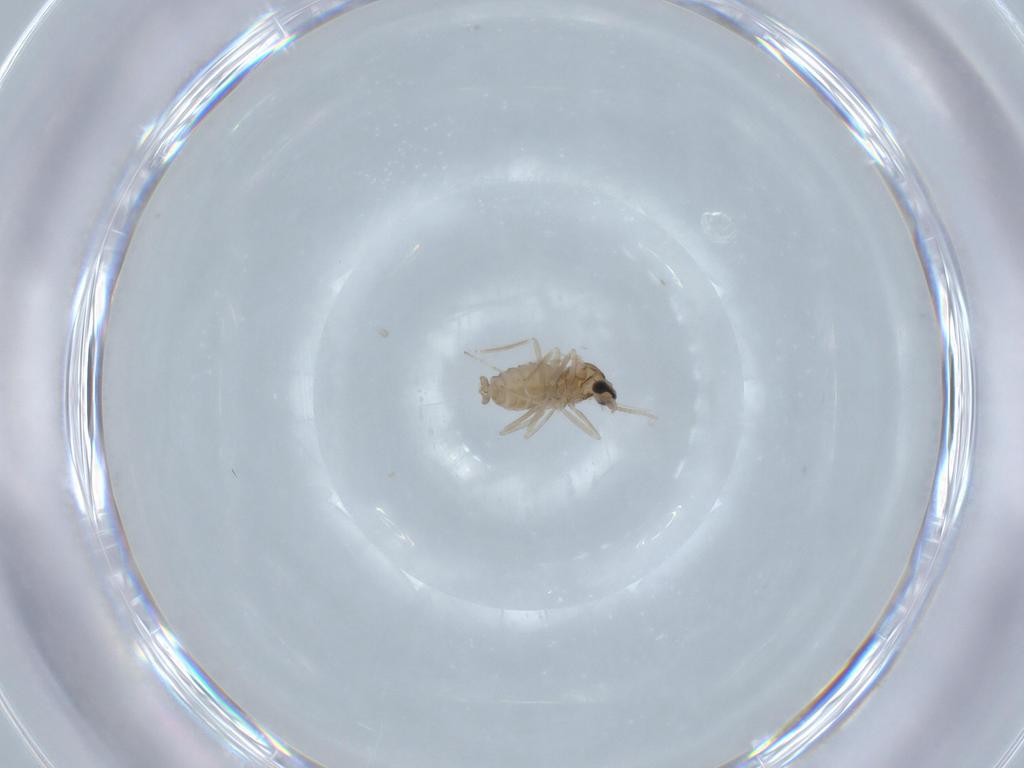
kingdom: Animalia
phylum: Arthropoda
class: Insecta
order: Diptera
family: Cecidomyiidae
